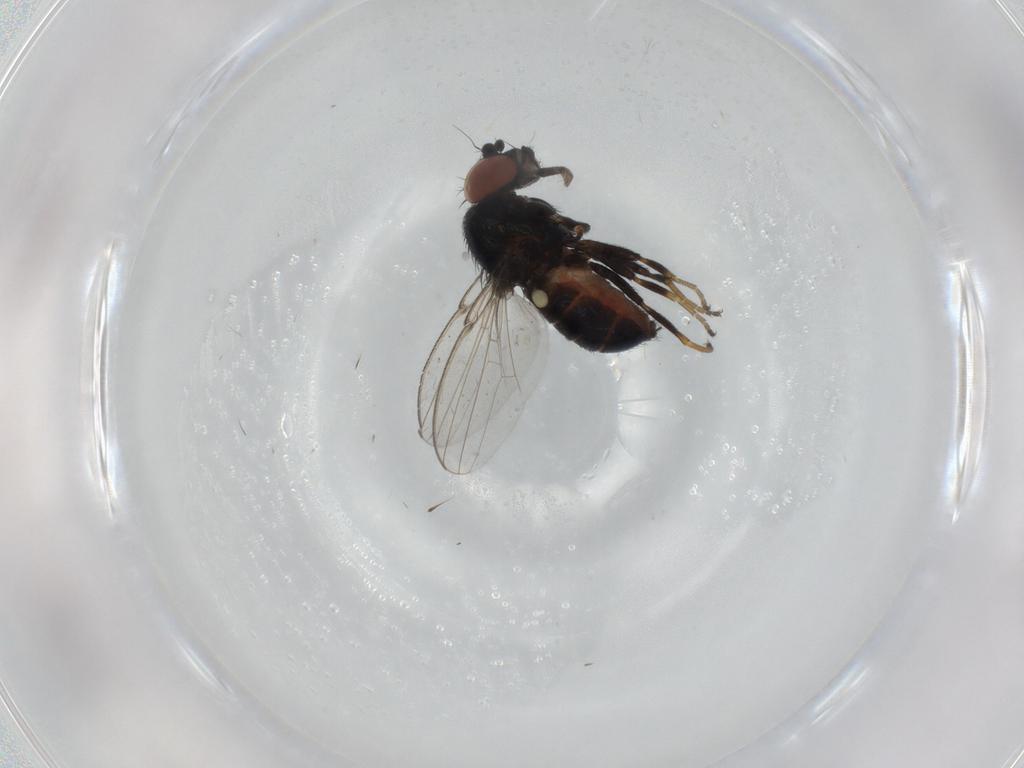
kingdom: Animalia
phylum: Arthropoda
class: Insecta
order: Diptera
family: Milichiidae
